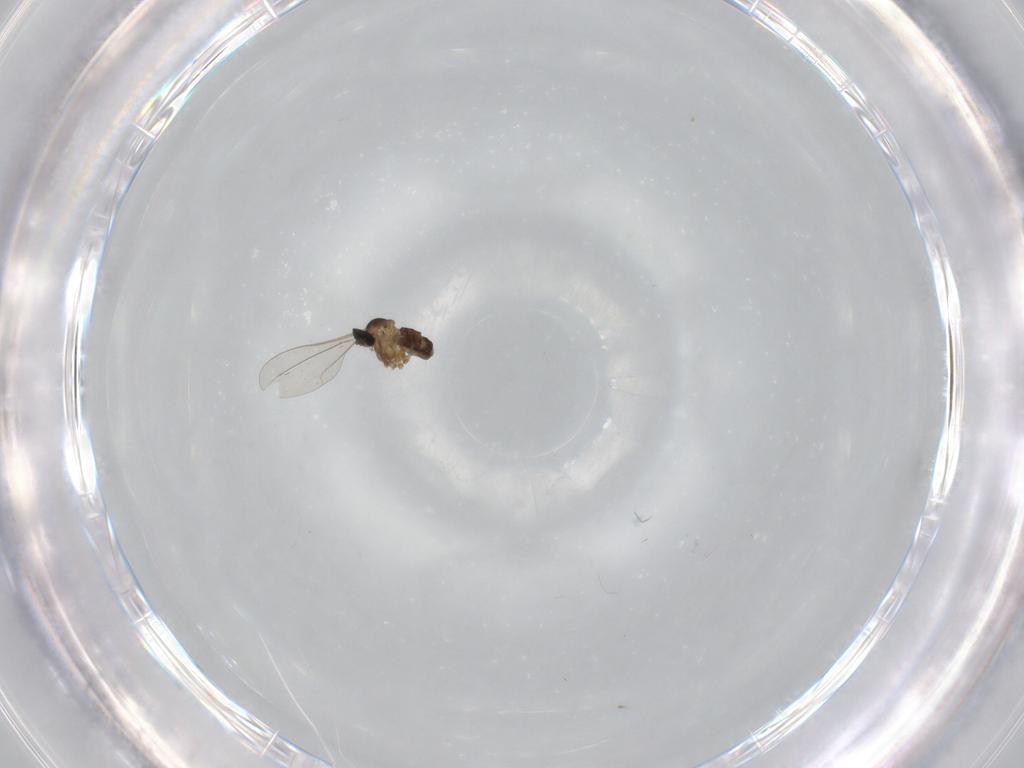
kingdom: Animalia
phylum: Arthropoda
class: Insecta
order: Diptera
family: Cecidomyiidae
